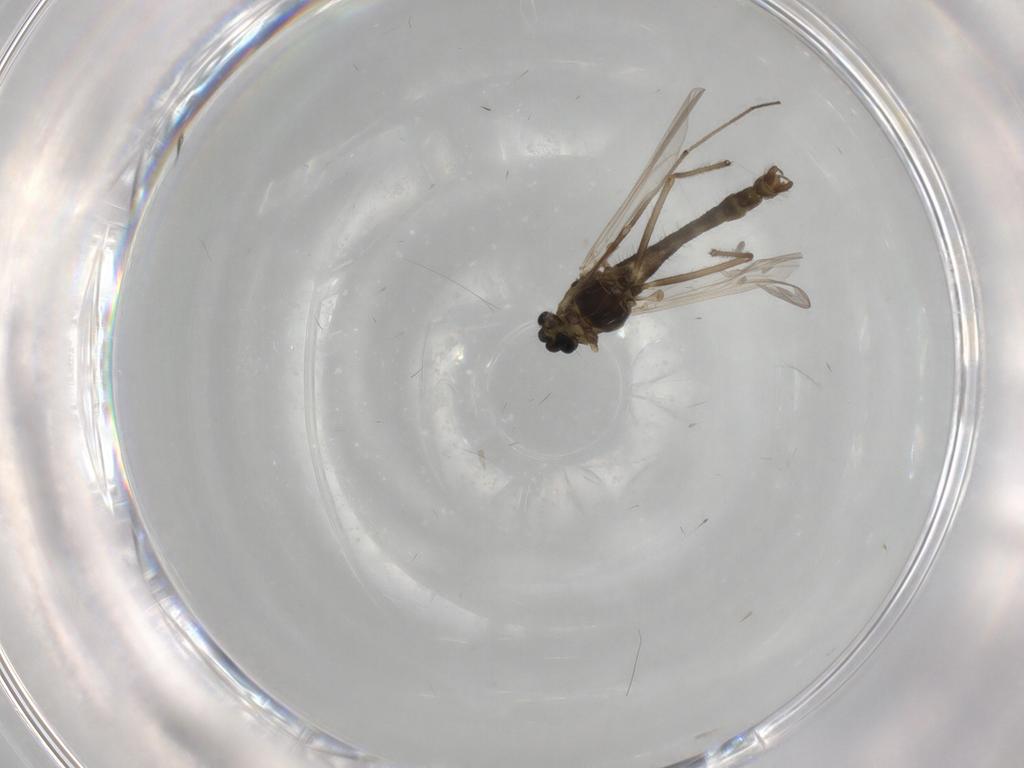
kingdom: Animalia
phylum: Arthropoda
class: Insecta
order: Diptera
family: Chironomidae
